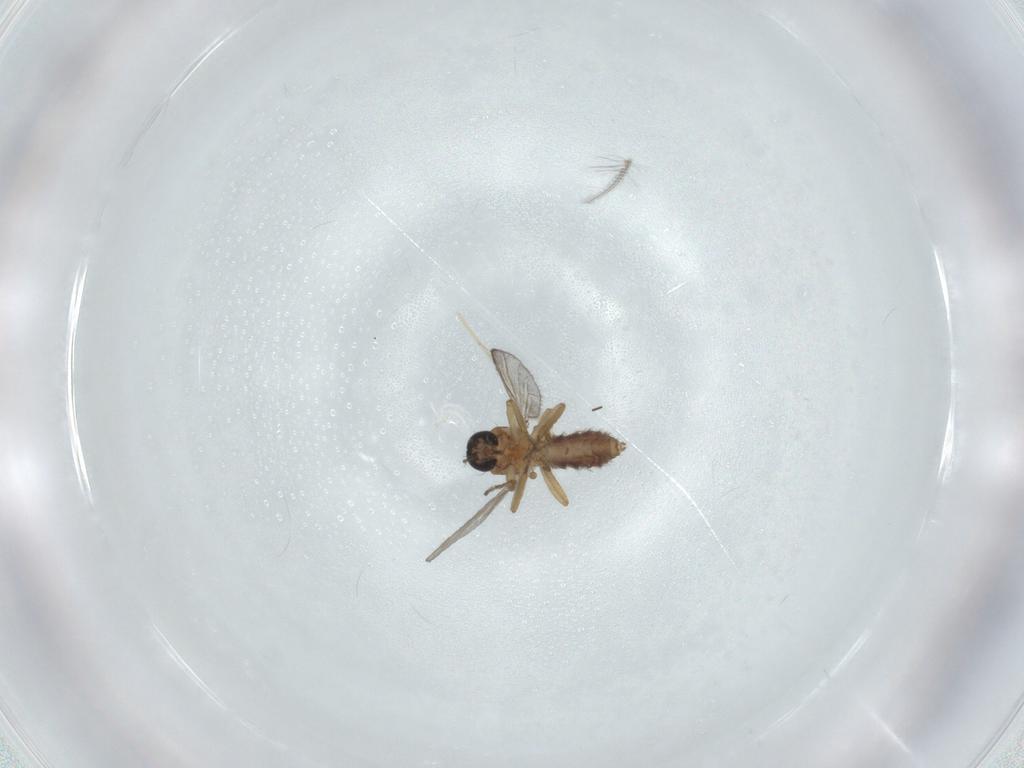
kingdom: Animalia
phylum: Arthropoda
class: Insecta
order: Diptera
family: Ceratopogonidae
